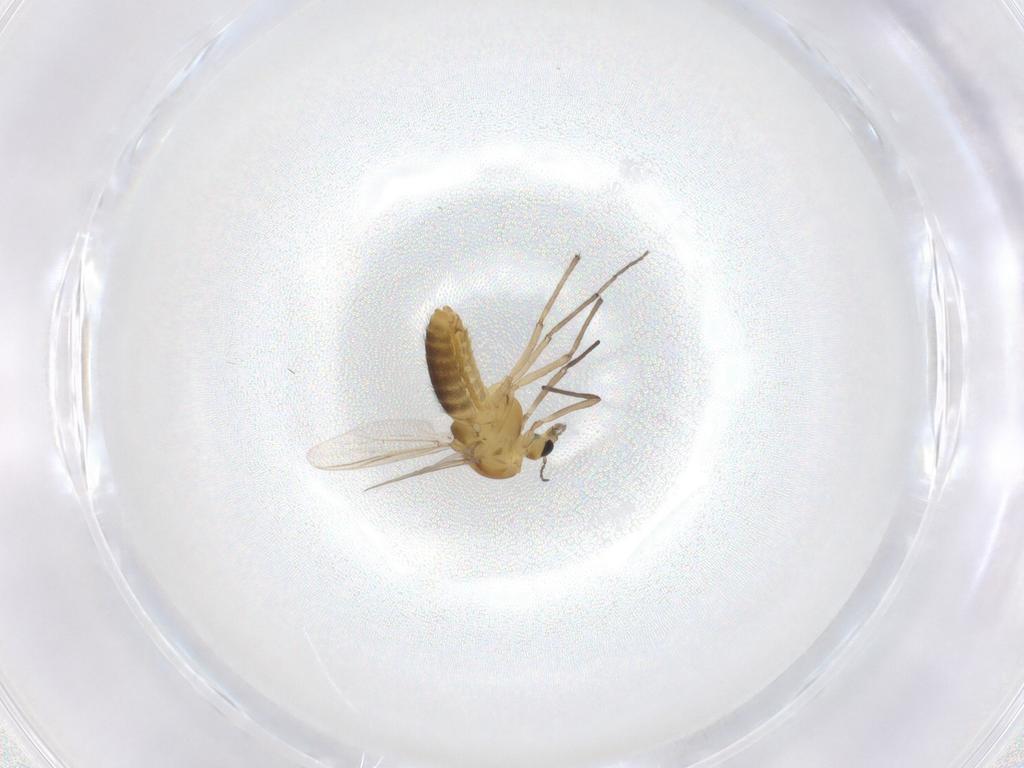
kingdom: Animalia
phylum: Arthropoda
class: Insecta
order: Diptera
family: Chironomidae
